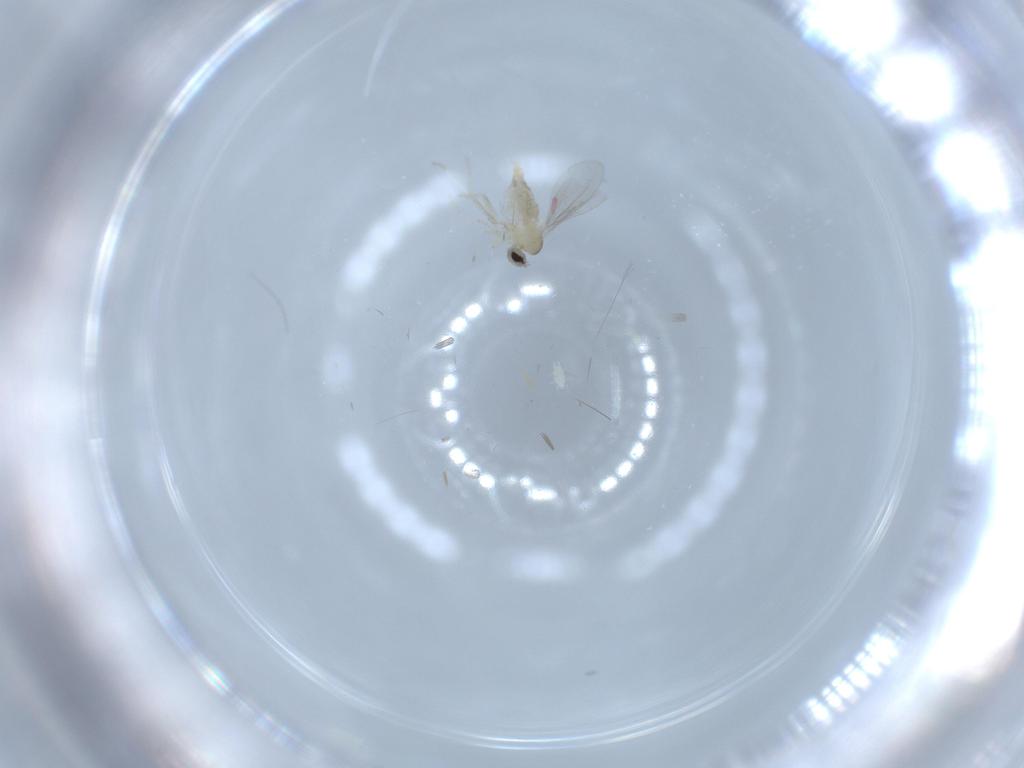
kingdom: Animalia
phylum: Arthropoda
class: Insecta
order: Diptera
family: Cecidomyiidae
